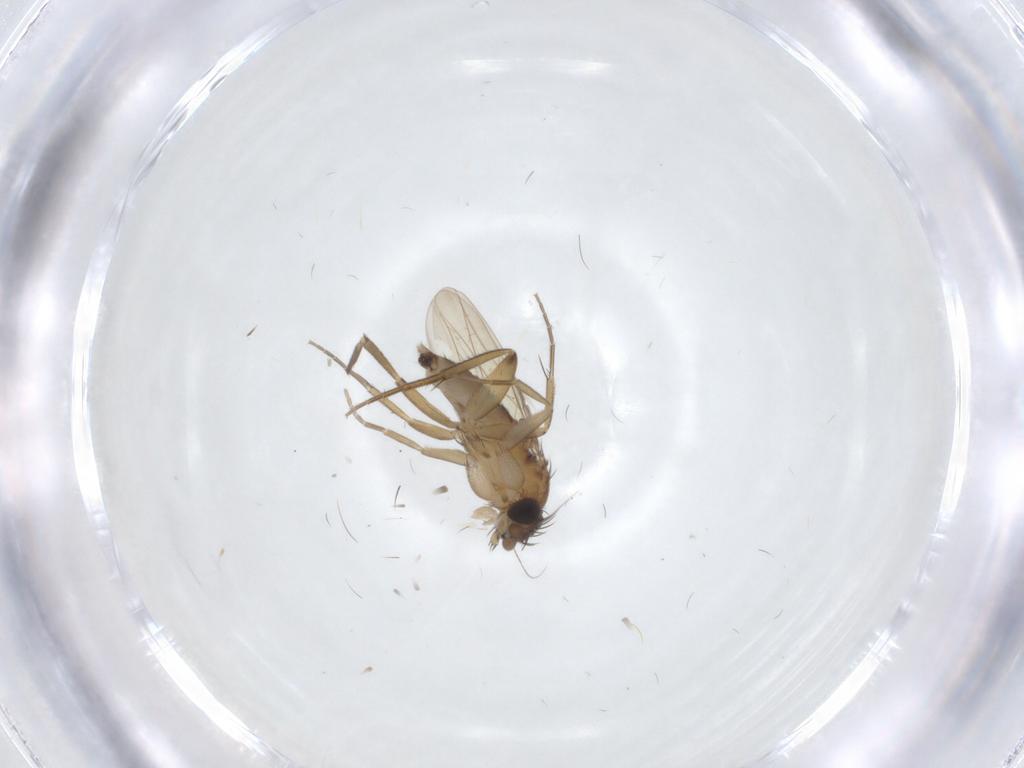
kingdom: Animalia
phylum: Arthropoda
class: Insecta
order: Diptera
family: Phoridae
